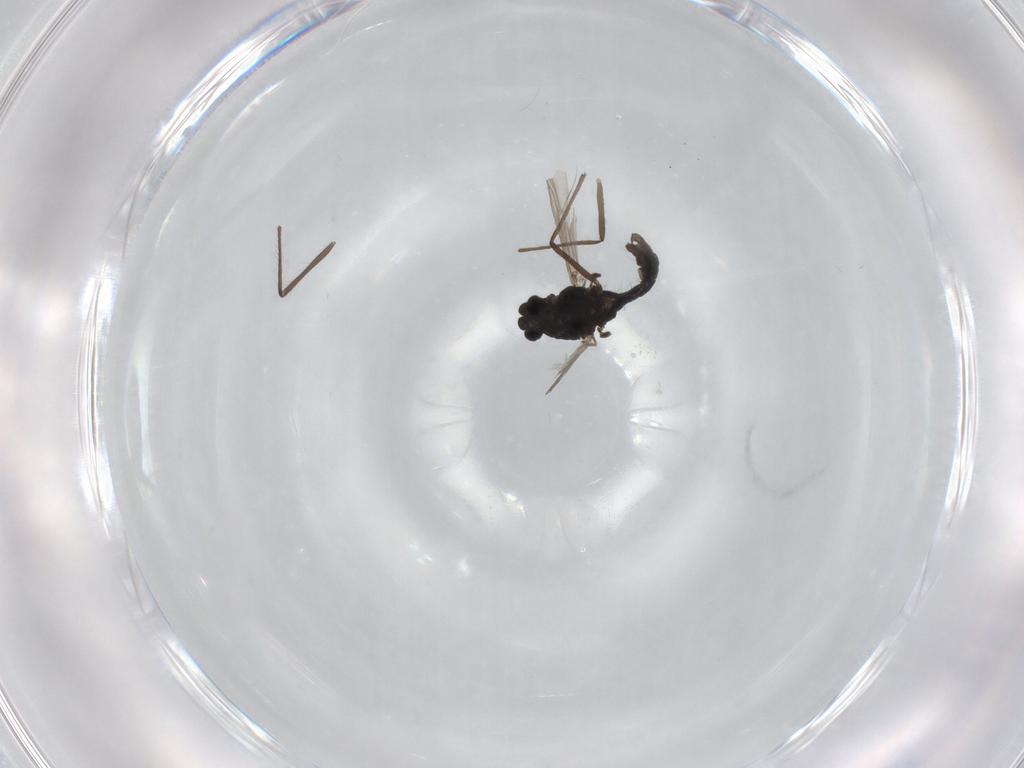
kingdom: Animalia
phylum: Arthropoda
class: Insecta
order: Diptera
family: Chironomidae
